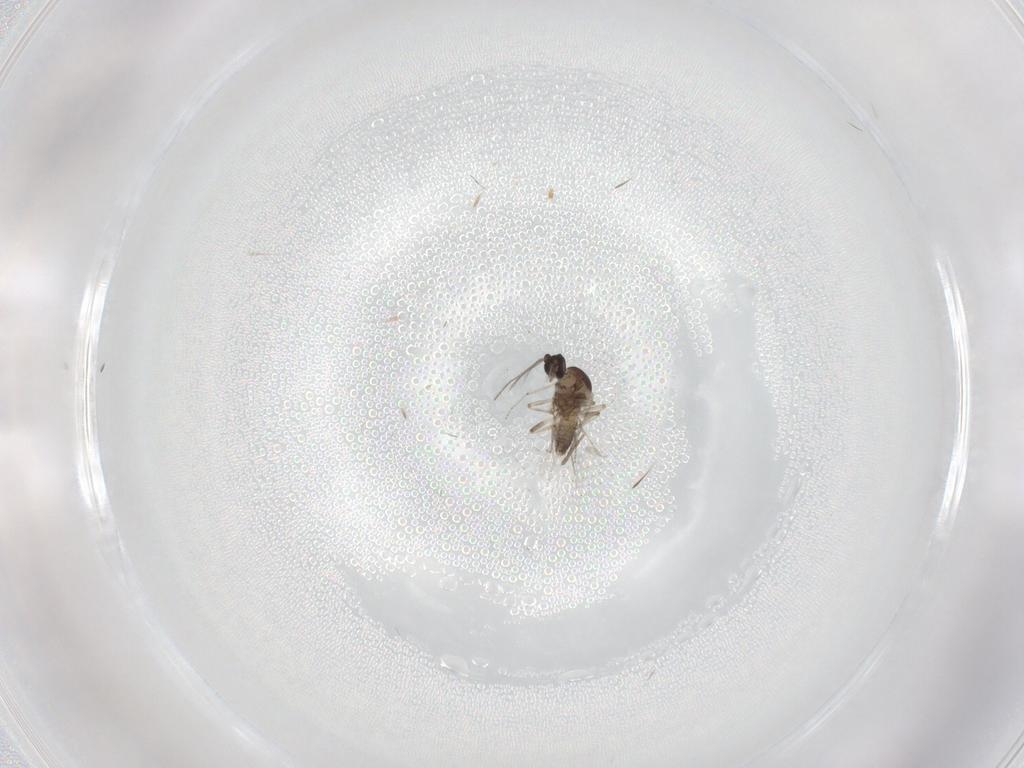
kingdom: Animalia
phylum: Arthropoda
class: Insecta
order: Diptera
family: Ceratopogonidae
